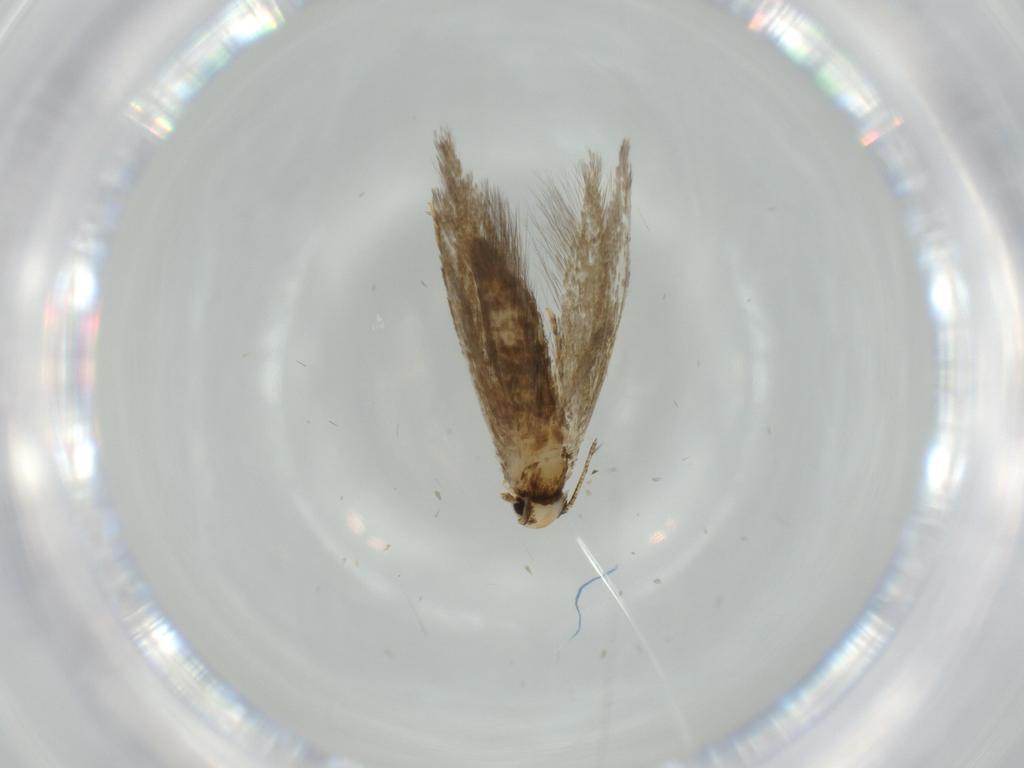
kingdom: Animalia
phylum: Arthropoda
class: Insecta
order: Lepidoptera
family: Tineidae
